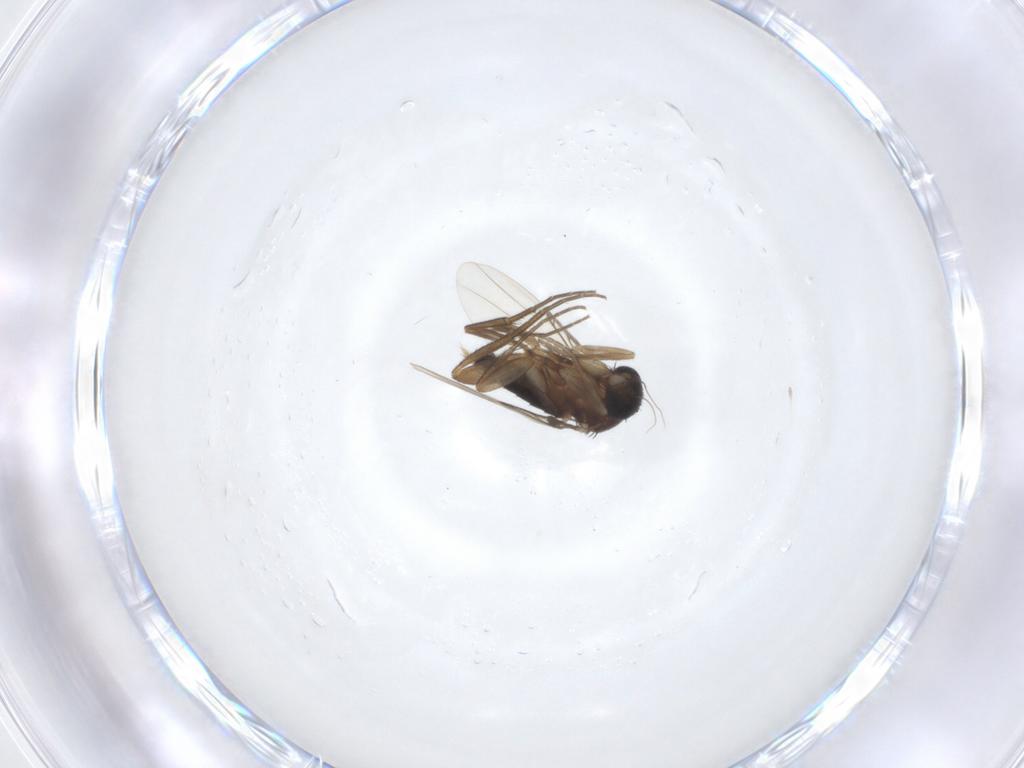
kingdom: Animalia
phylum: Arthropoda
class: Insecta
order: Diptera
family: Phoridae
